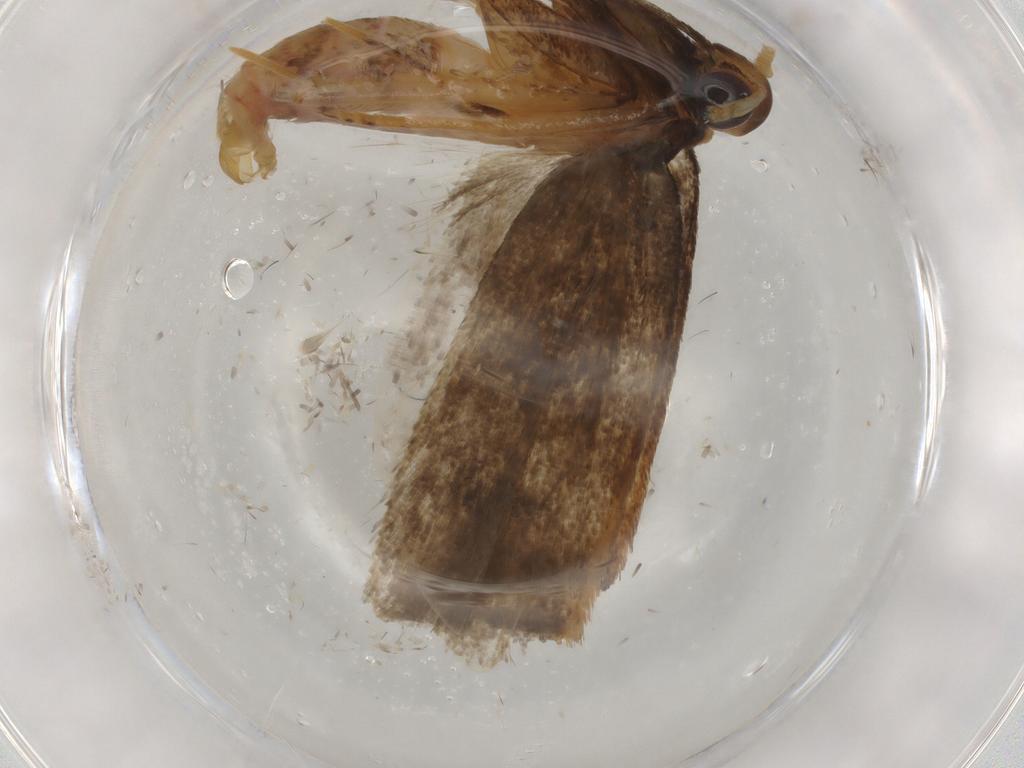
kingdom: Animalia
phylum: Arthropoda
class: Insecta
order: Lepidoptera
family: Lecithoceridae
